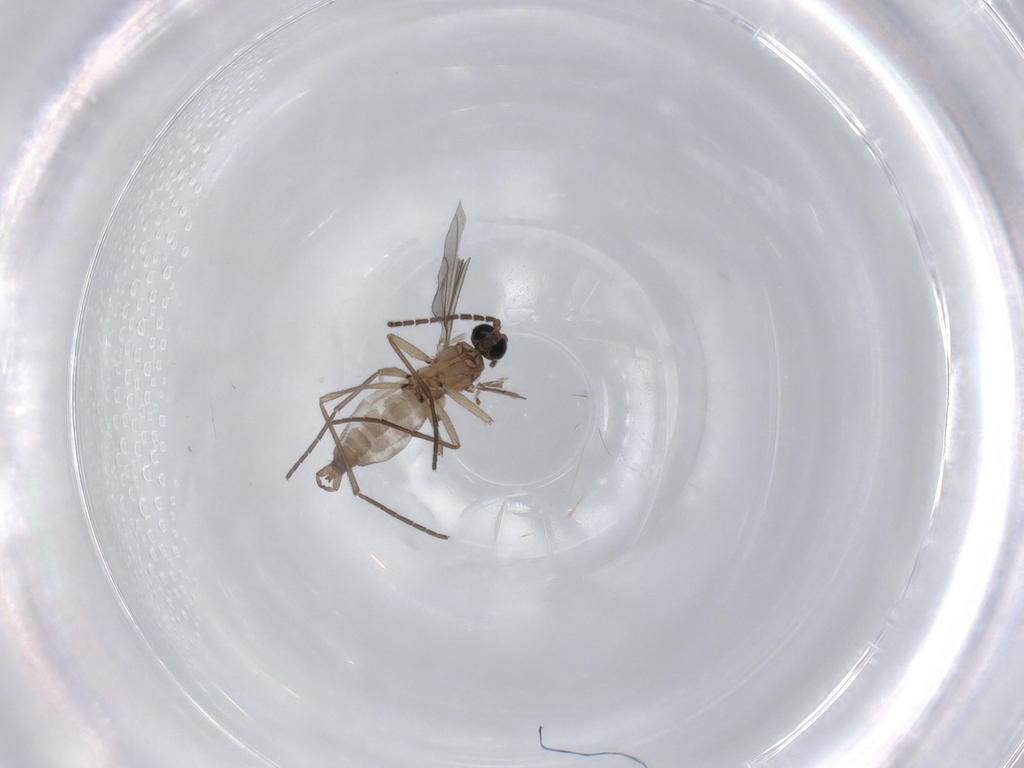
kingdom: Animalia
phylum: Arthropoda
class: Insecta
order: Diptera
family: Sciaridae
